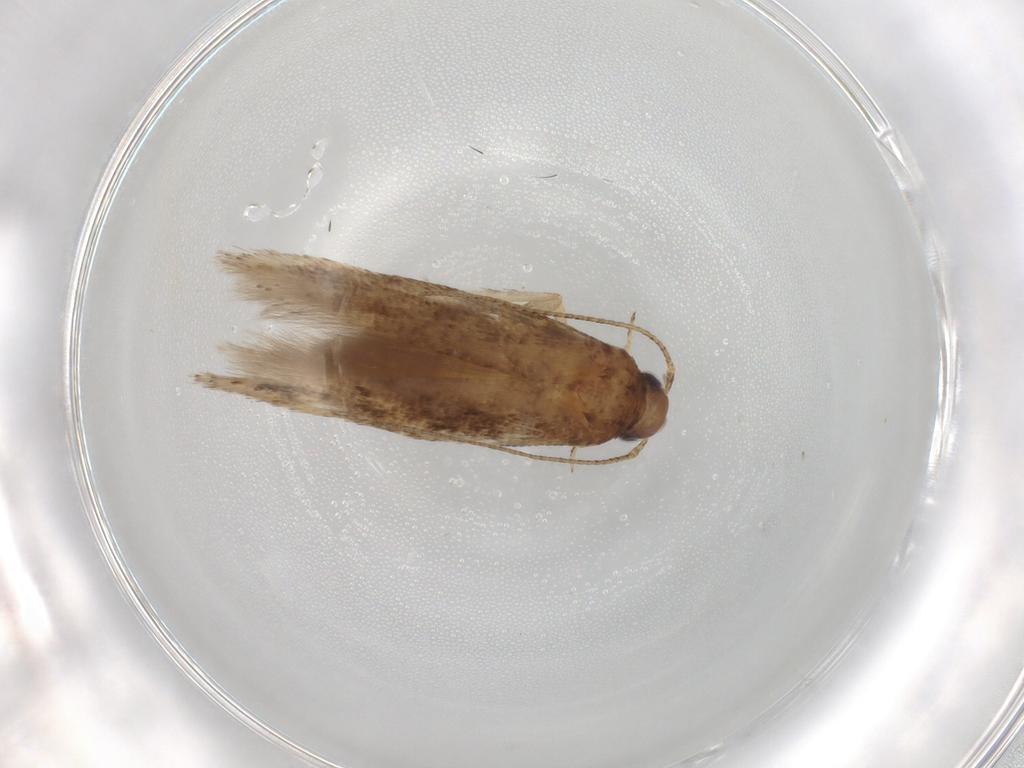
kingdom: Animalia
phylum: Arthropoda
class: Insecta
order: Lepidoptera
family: Gelechiidae
